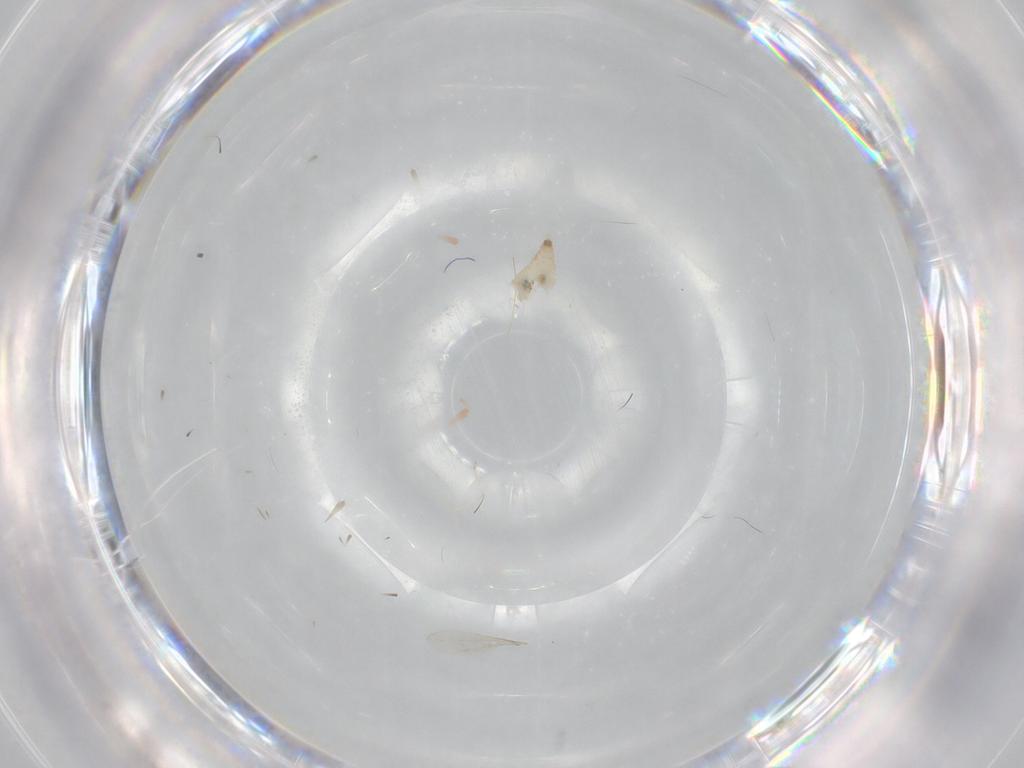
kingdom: Animalia
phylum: Arthropoda
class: Insecta
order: Diptera
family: Cecidomyiidae
